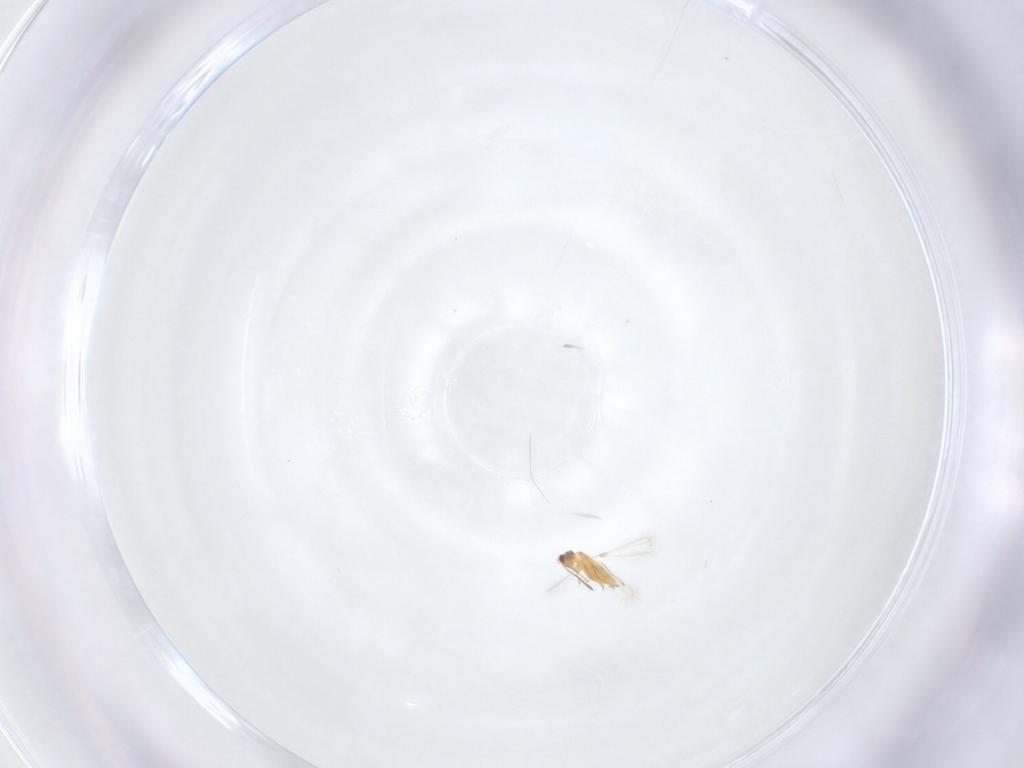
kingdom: Animalia
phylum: Arthropoda
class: Insecta
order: Hymenoptera
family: Mymaridae
